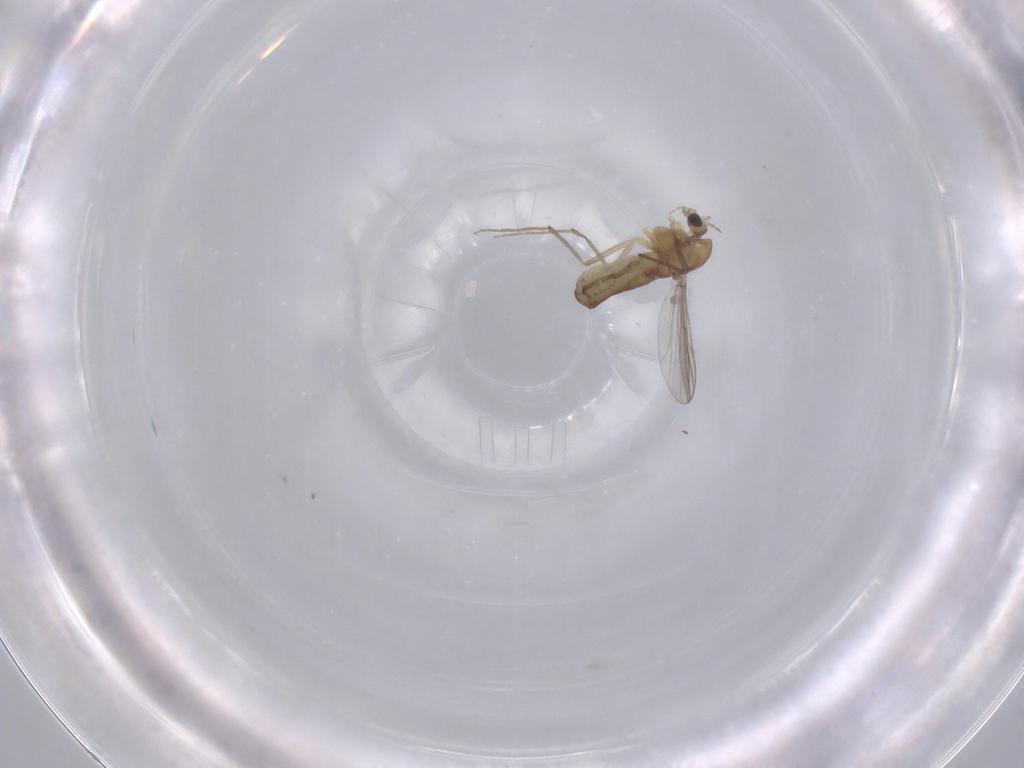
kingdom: Animalia
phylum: Arthropoda
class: Insecta
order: Diptera
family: Chironomidae
